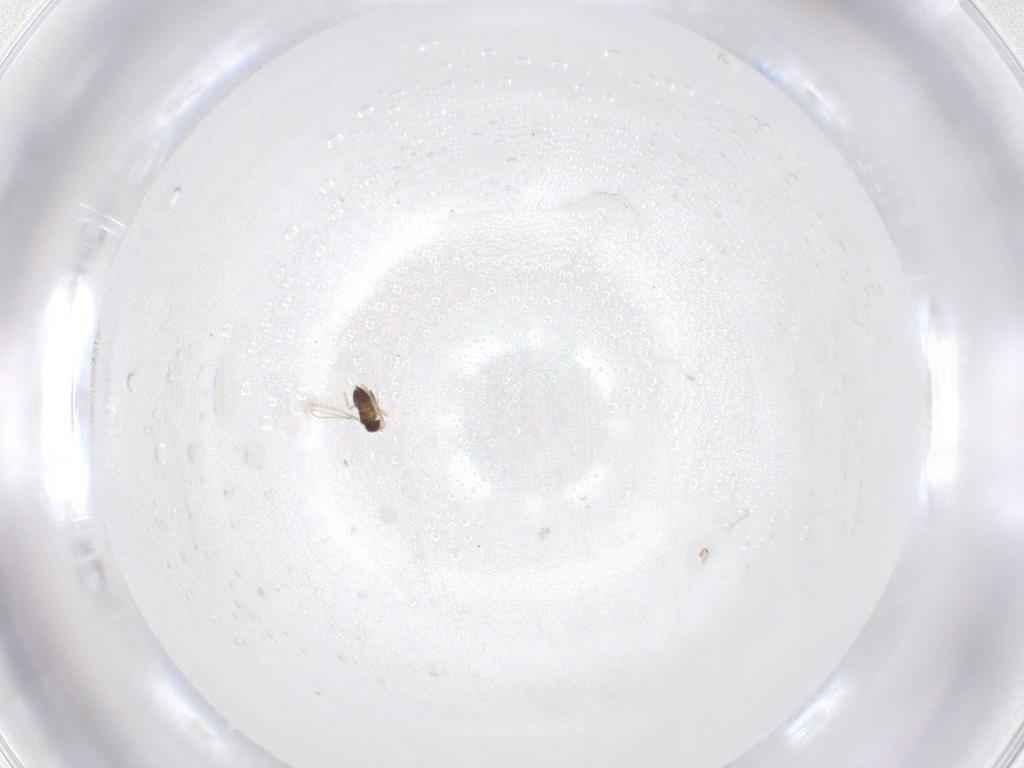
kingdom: Animalia
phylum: Arthropoda
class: Insecta
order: Hymenoptera
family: Mymaridae
